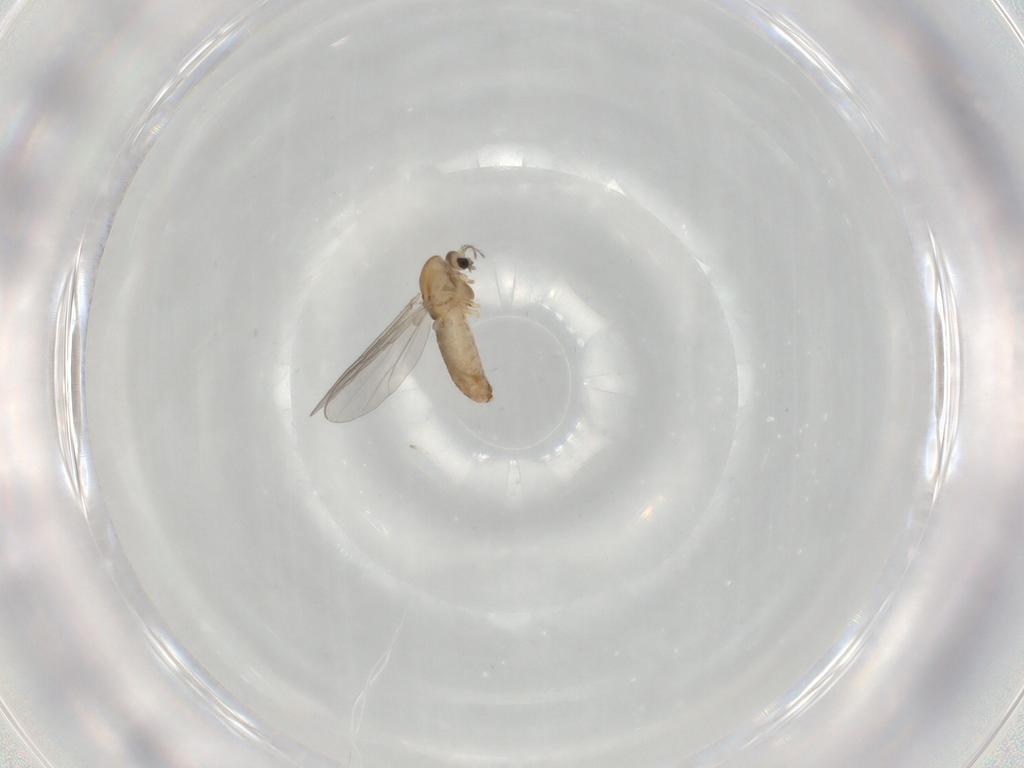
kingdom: Animalia
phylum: Arthropoda
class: Insecta
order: Diptera
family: Chironomidae
